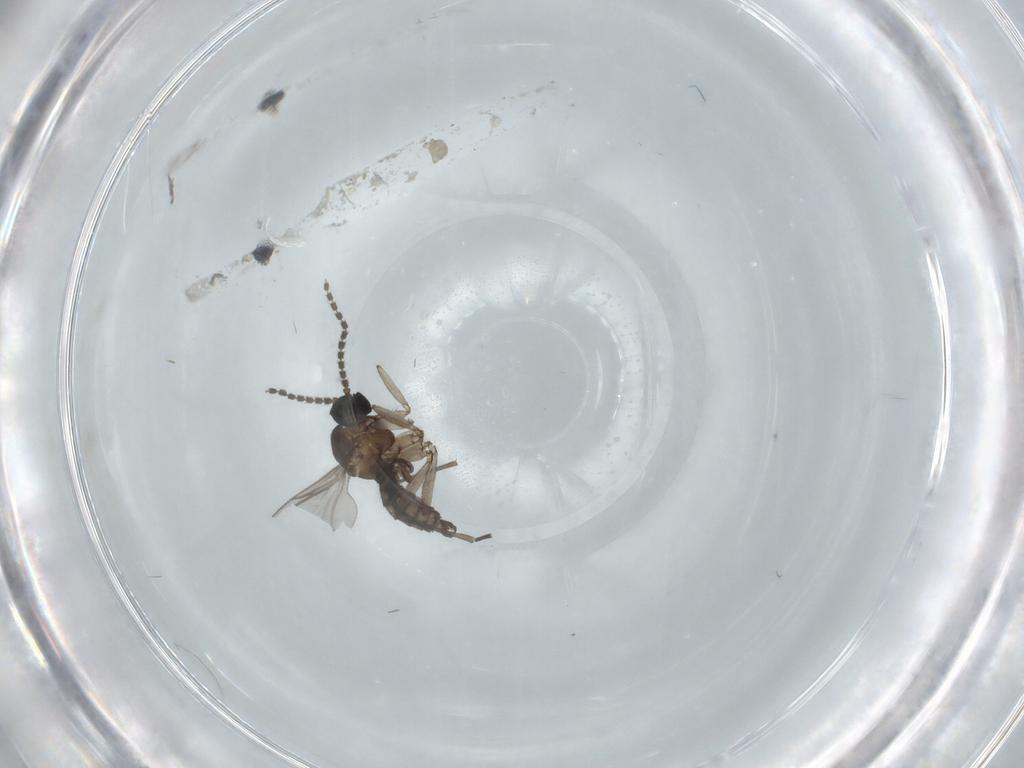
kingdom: Animalia
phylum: Arthropoda
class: Insecta
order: Diptera
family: Dolichopodidae
